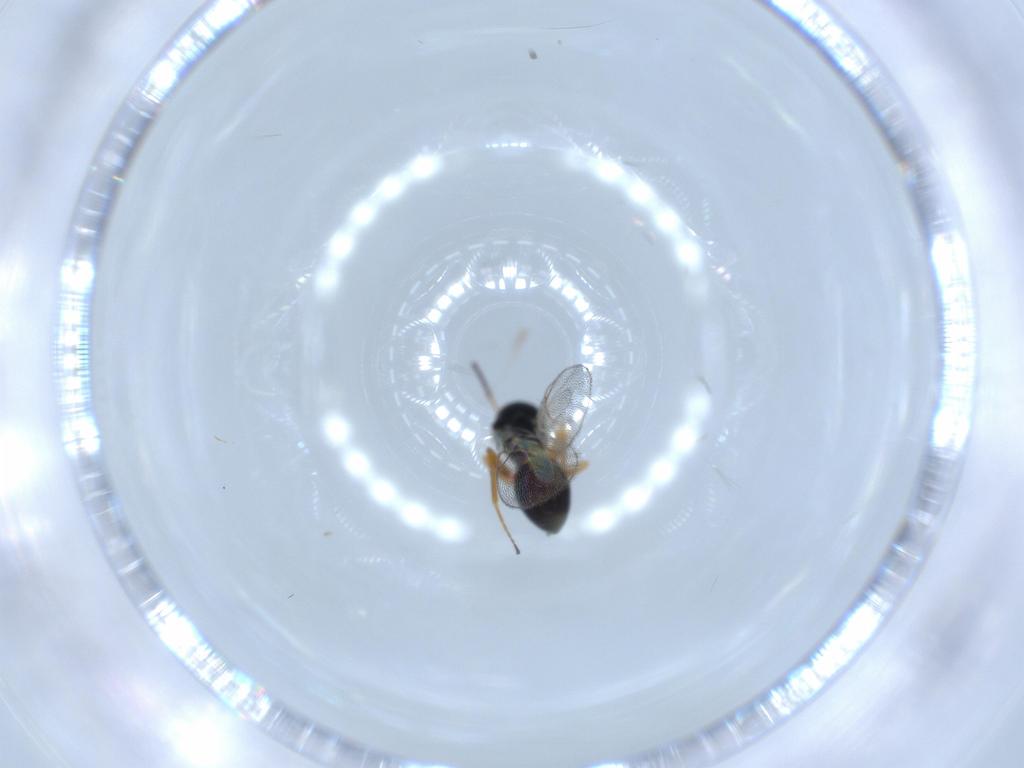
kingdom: Animalia
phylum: Arthropoda
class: Insecta
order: Hymenoptera
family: Figitidae
